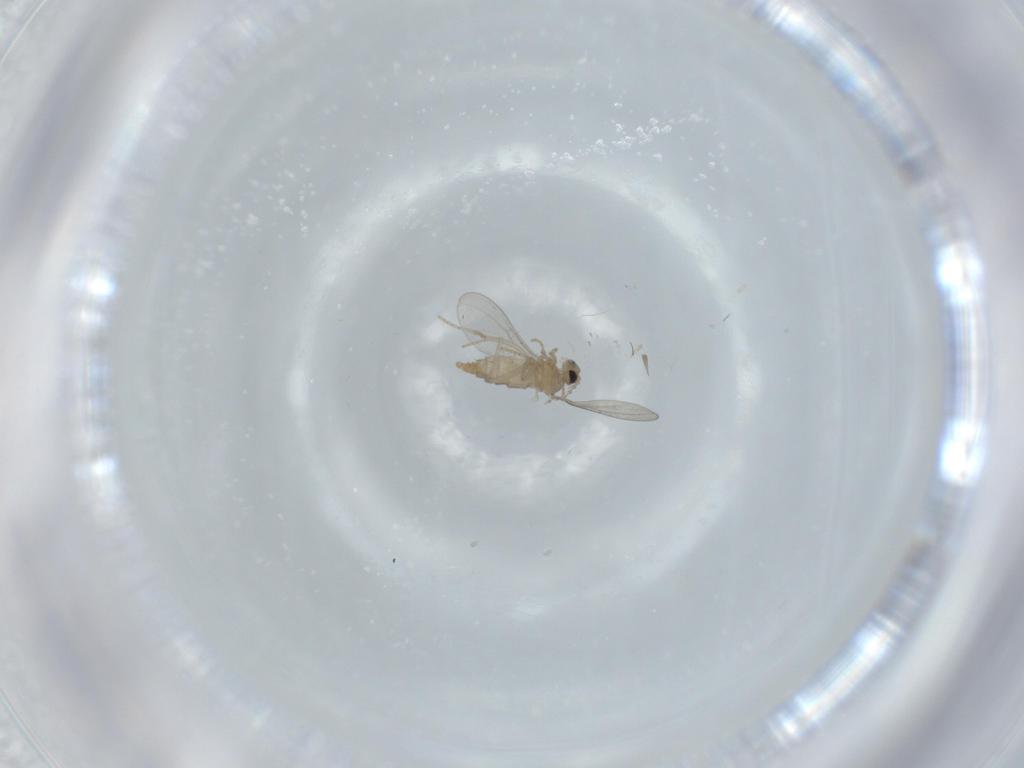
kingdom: Animalia
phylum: Arthropoda
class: Insecta
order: Diptera
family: Cecidomyiidae
